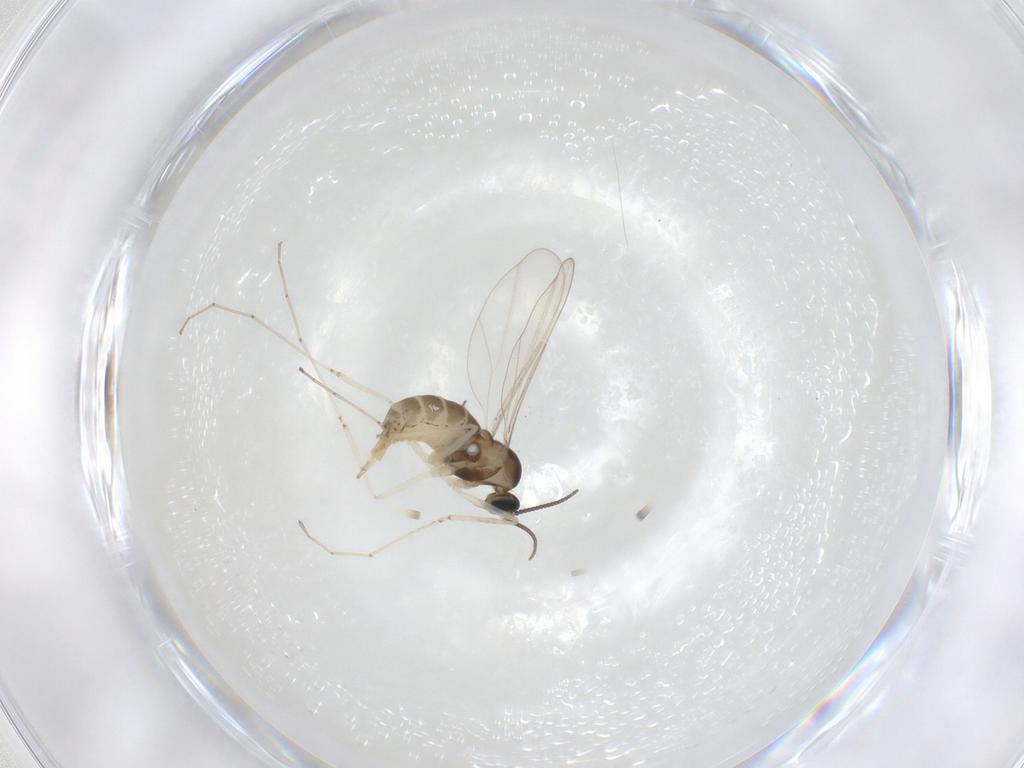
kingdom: Animalia
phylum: Arthropoda
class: Insecta
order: Diptera
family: Cecidomyiidae
